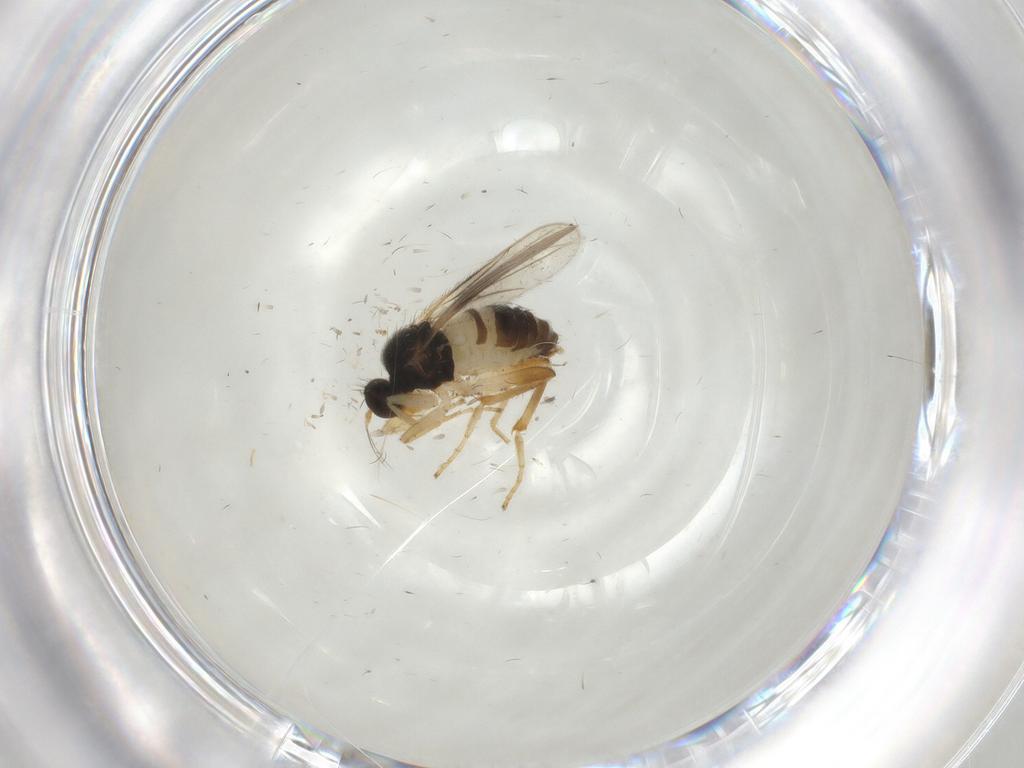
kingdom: Animalia
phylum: Arthropoda
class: Insecta
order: Diptera
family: Hybotidae
